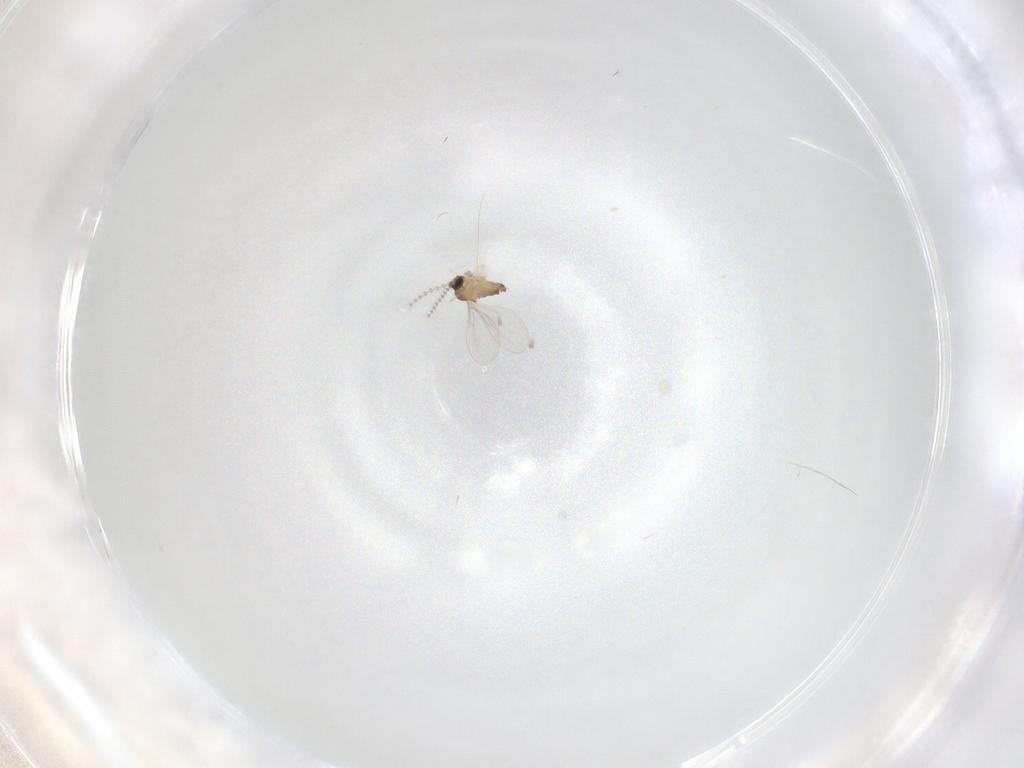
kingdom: Animalia
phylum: Arthropoda
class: Insecta
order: Diptera
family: Cecidomyiidae
